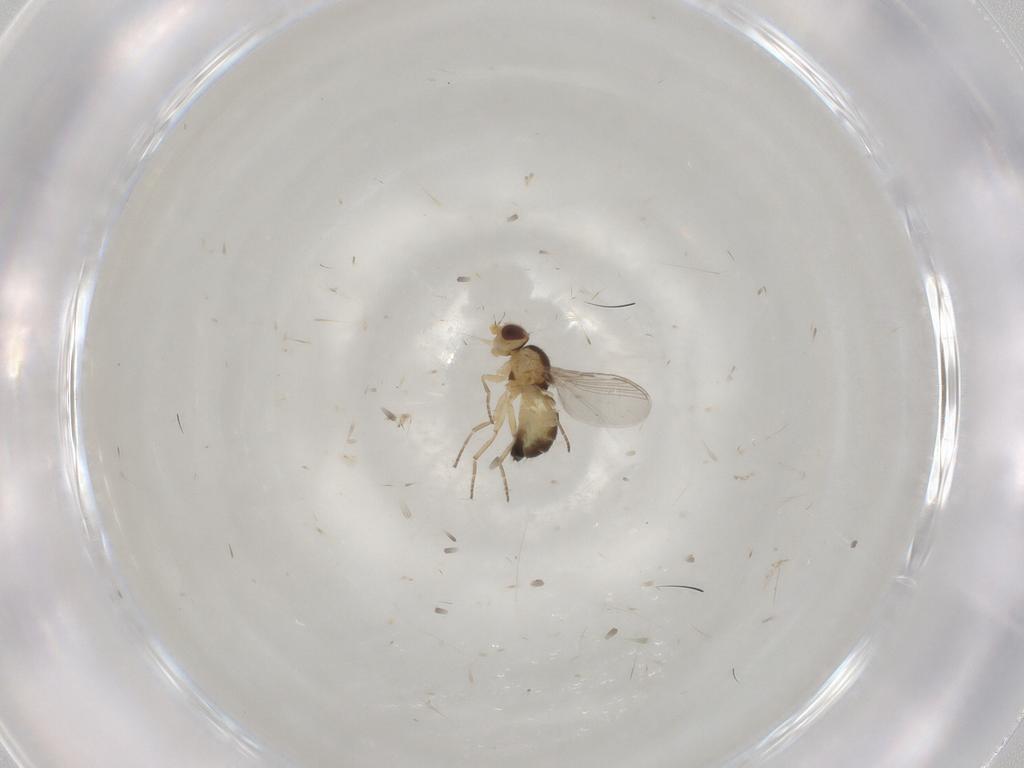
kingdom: Animalia
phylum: Arthropoda
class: Insecta
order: Diptera
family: Agromyzidae
